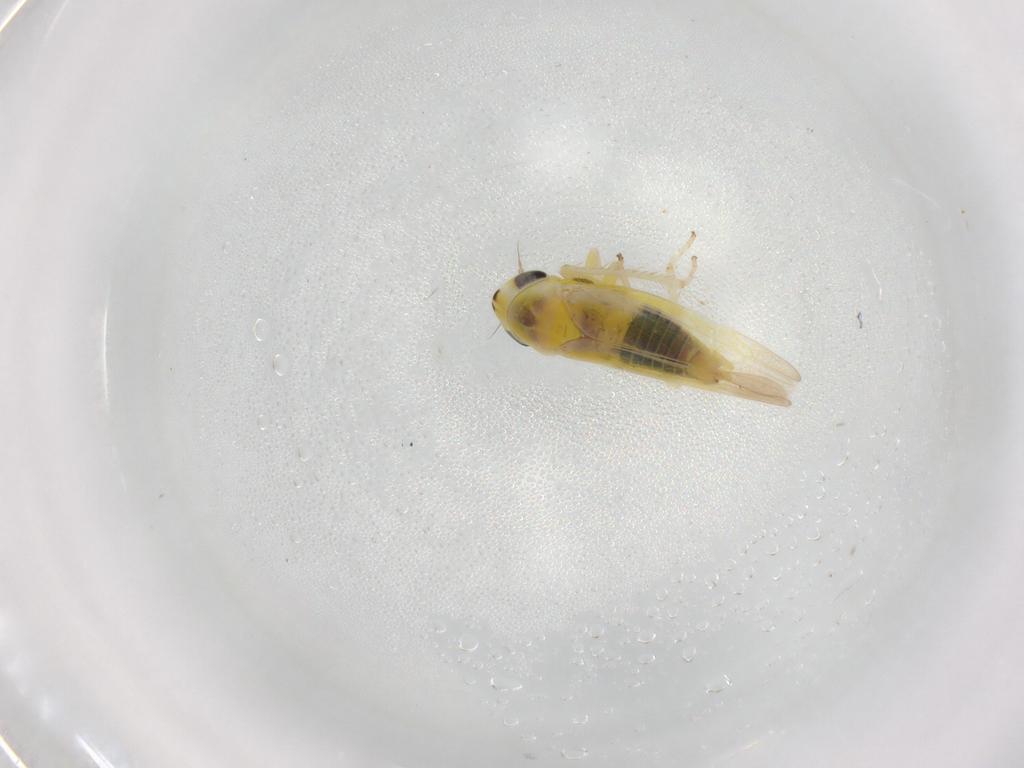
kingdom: Animalia
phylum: Arthropoda
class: Insecta
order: Hemiptera
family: Cicadellidae
